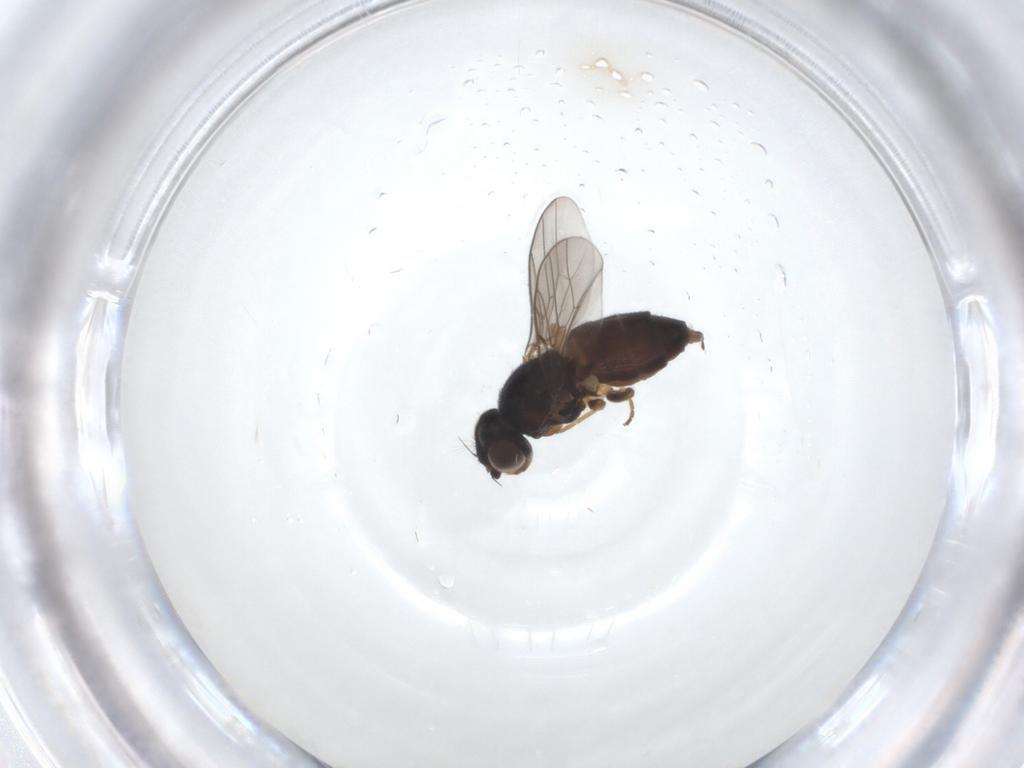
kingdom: Animalia
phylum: Arthropoda
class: Insecta
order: Diptera
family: Chloropidae
